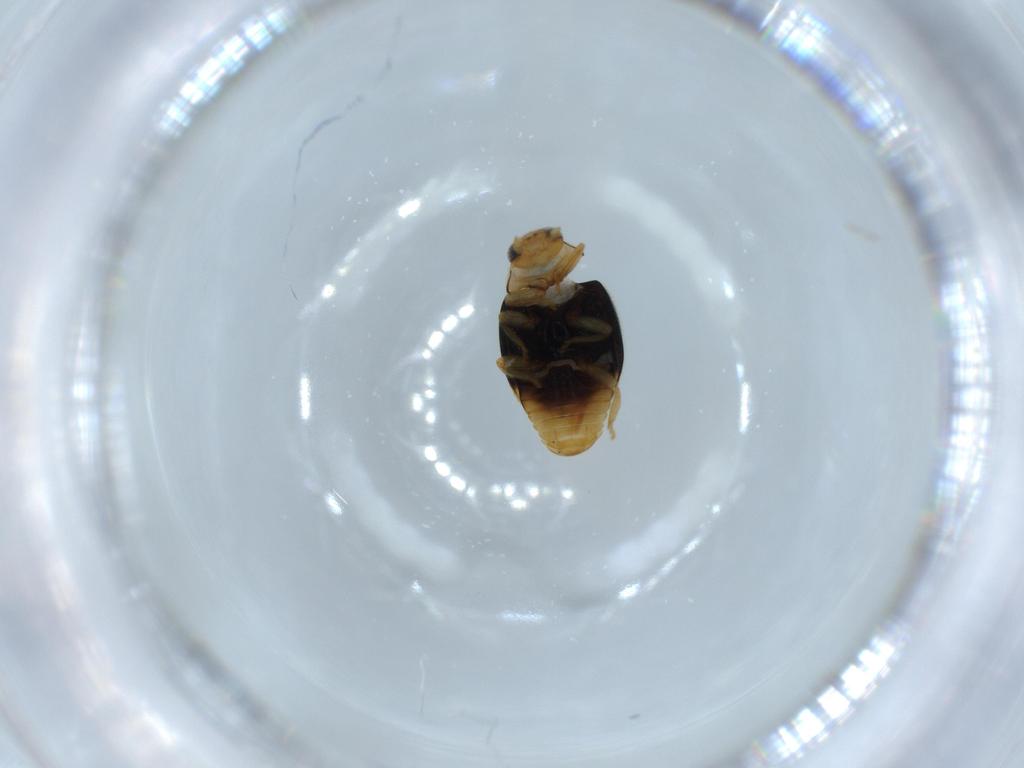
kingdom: Animalia
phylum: Arthropoda
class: Insecta
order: Coleoptera
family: Coccinellidae
